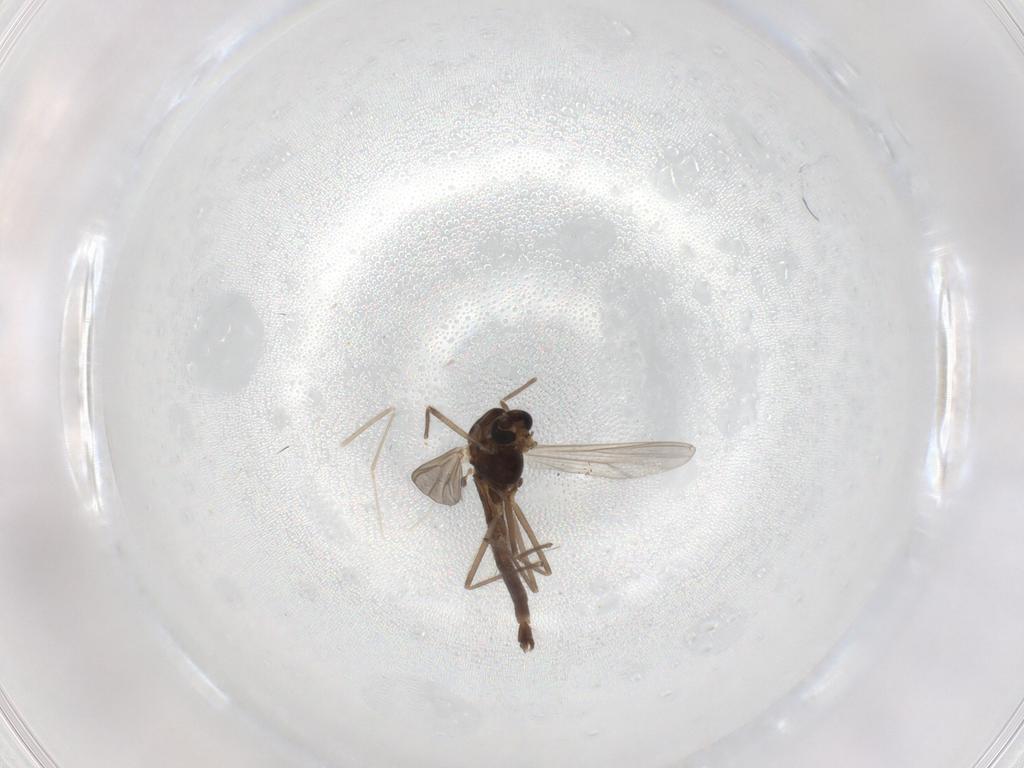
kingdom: Animalia
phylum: Arthropoda
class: Insecta
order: Diptera
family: Chironomidae
